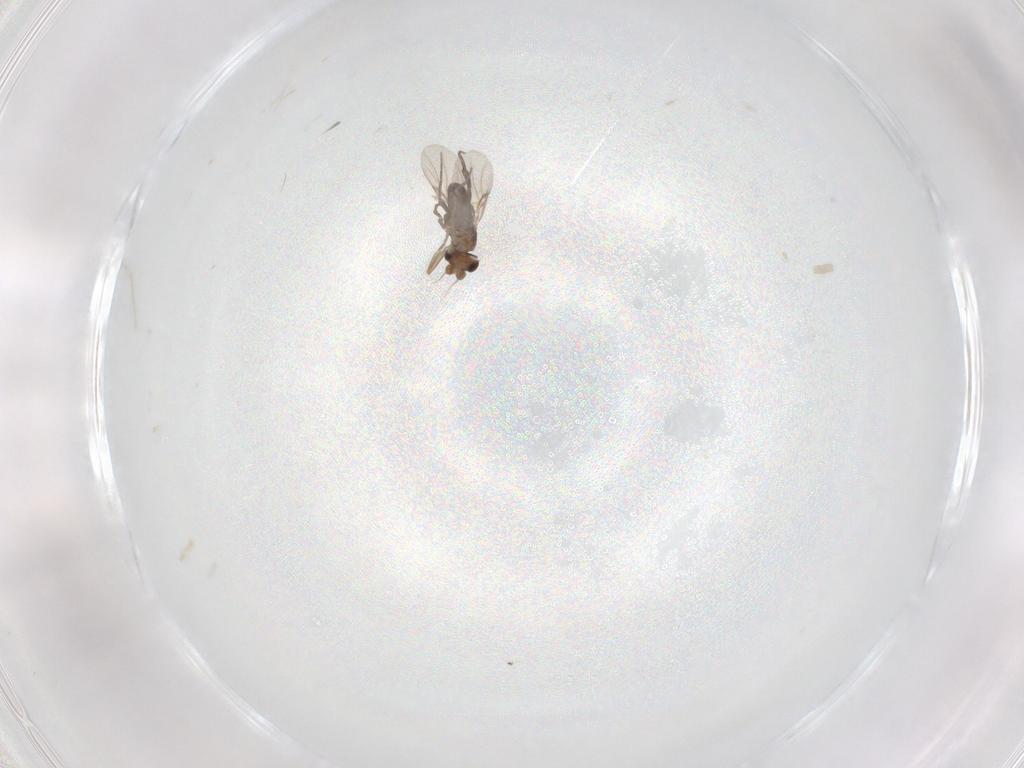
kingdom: Animalia
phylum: Arthropoda
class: Insecta
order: Diptera
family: Phoridae
